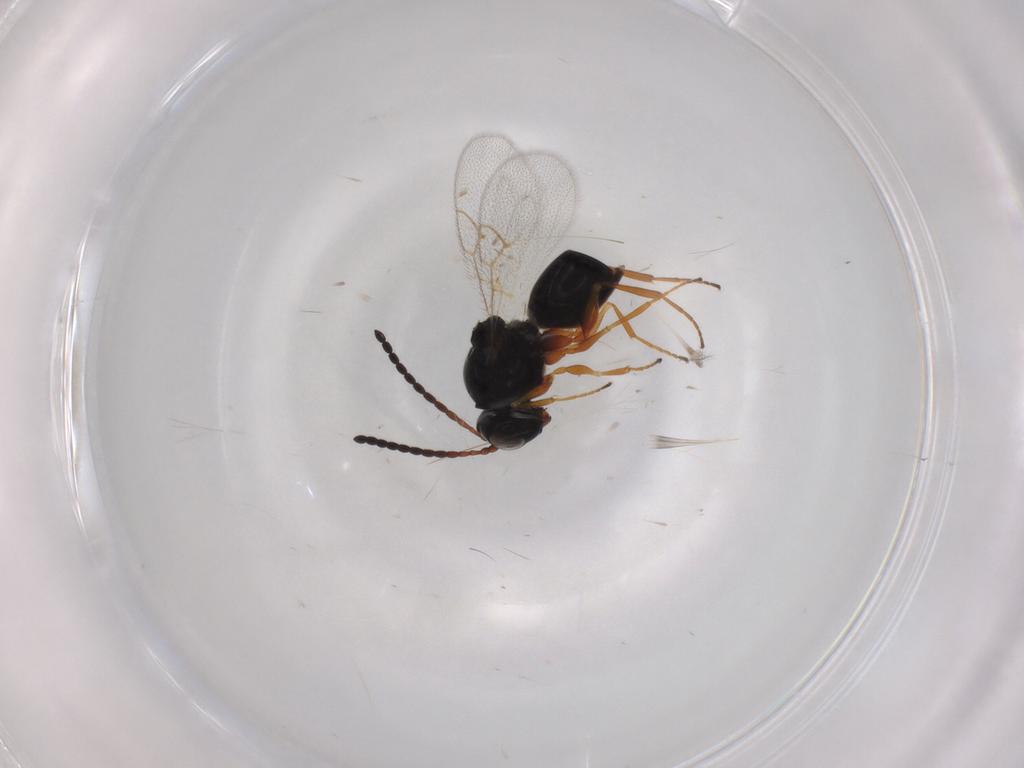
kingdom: Animalia
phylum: Arthropoda
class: Insecta
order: Hymenoptera
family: Figitidae
